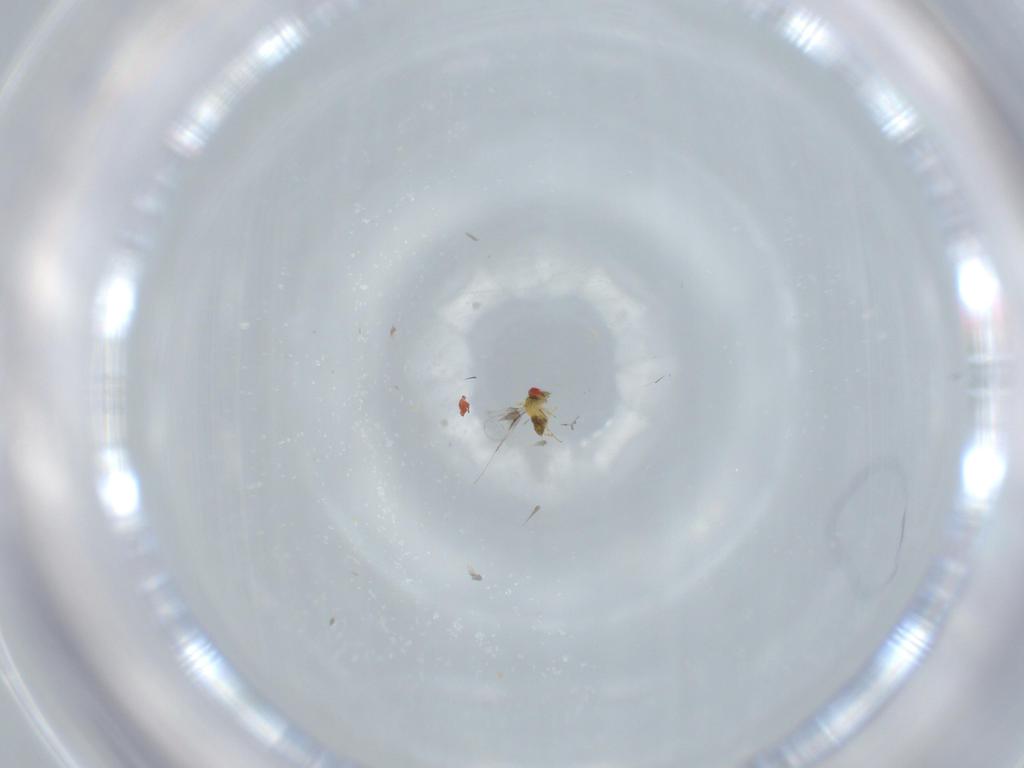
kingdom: Animalia
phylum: Arthropoda
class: Insecta
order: Hymenoptera
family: Trichogrammatidae
